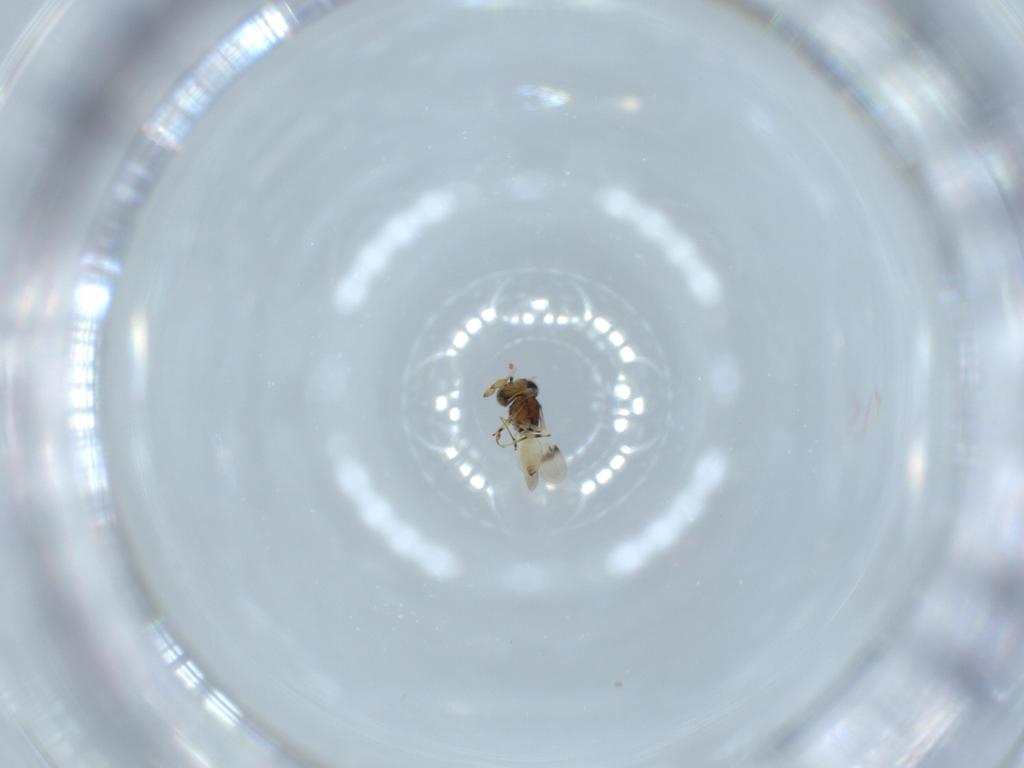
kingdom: Animalia
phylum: Arthropoda
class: Insecta
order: Hymenoptera
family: Scelionidae
